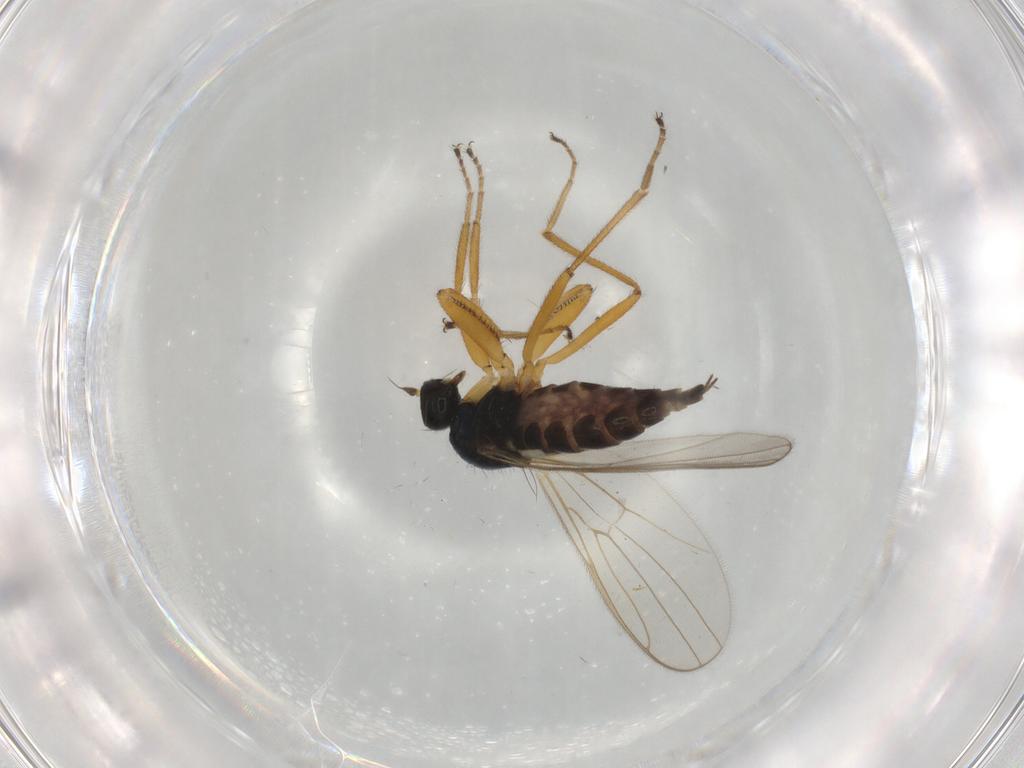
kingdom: Animalia
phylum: Arthropoda
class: Insecta
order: Diptera
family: Hybotidae
